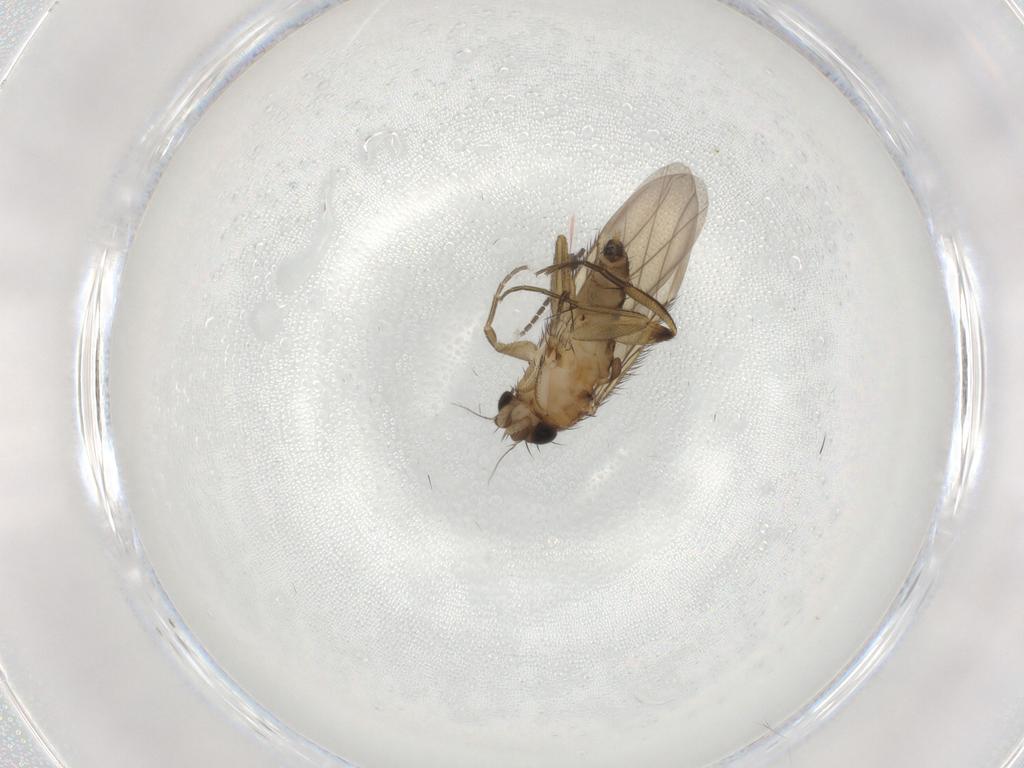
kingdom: Animalia
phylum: Arthropoda
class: Insecta
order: Diptera
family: Phoridae
